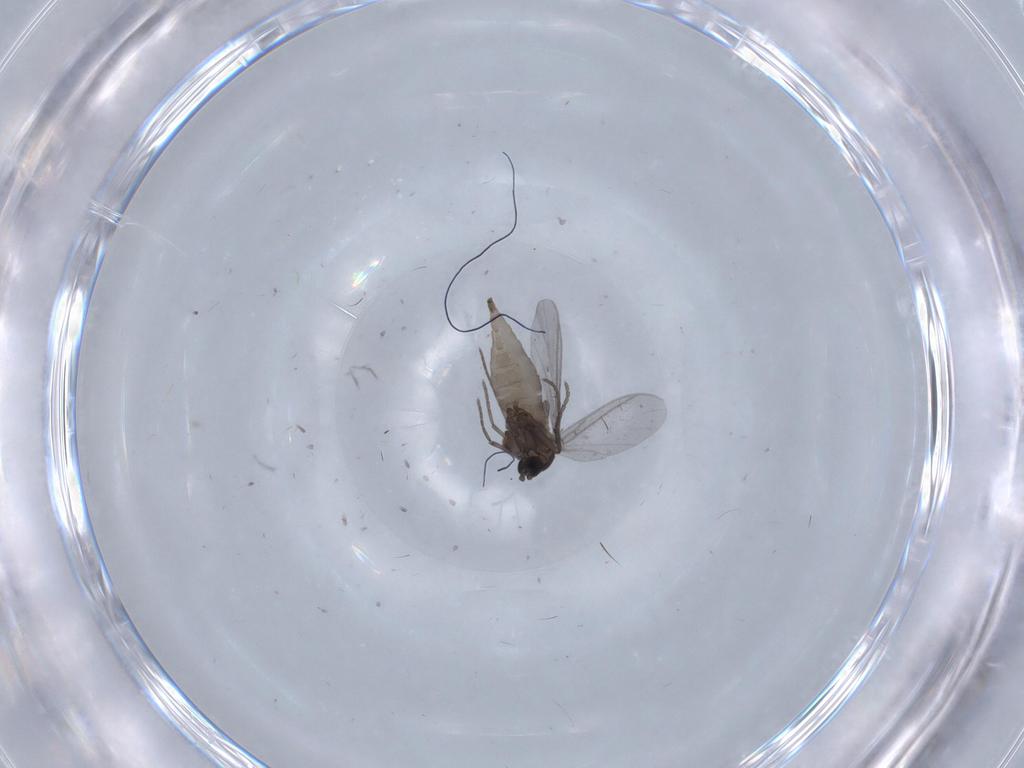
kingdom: Animalia
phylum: Arthropoda
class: Insecta
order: Diptera
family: Sciaridae
